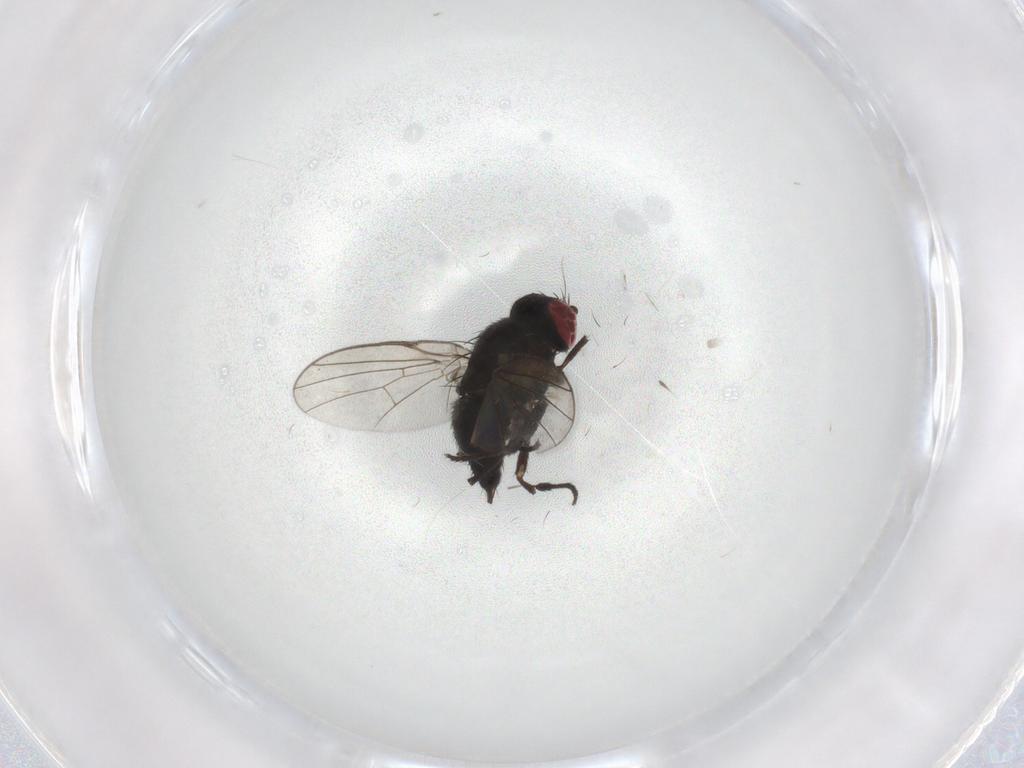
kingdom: Animalia
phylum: Arthropoda
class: Insecta
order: Diptera
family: Agromyzidae
